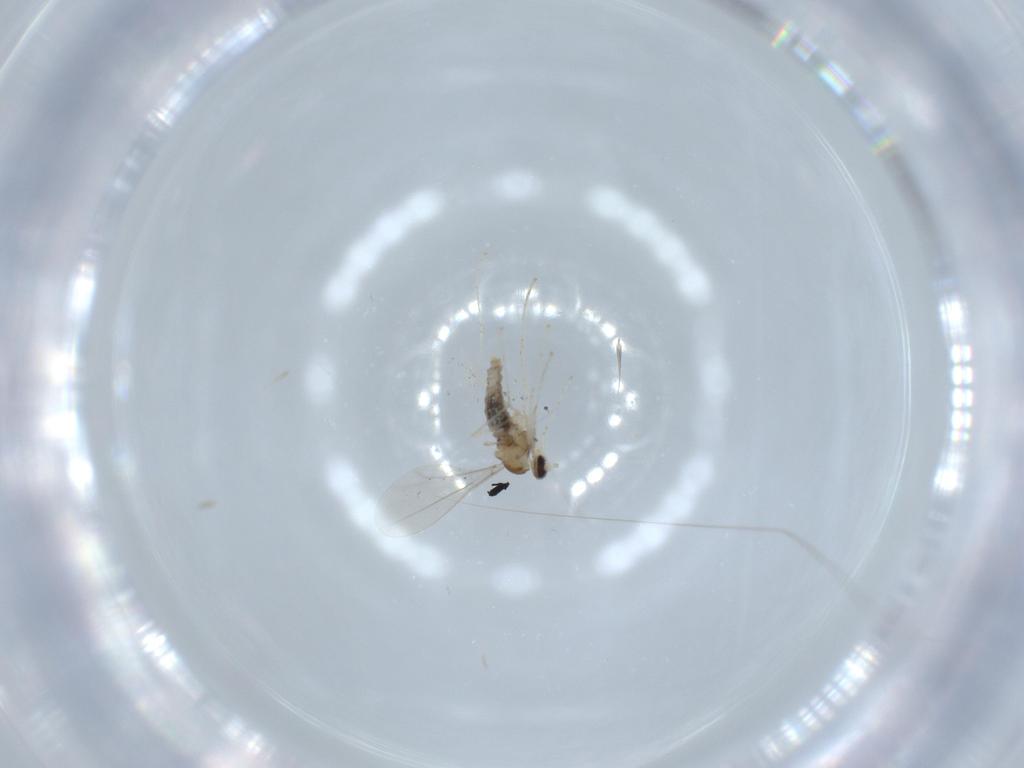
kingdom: Animalia
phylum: Arthropoda
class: Insecta
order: Diptera
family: Cecidomyiidae
